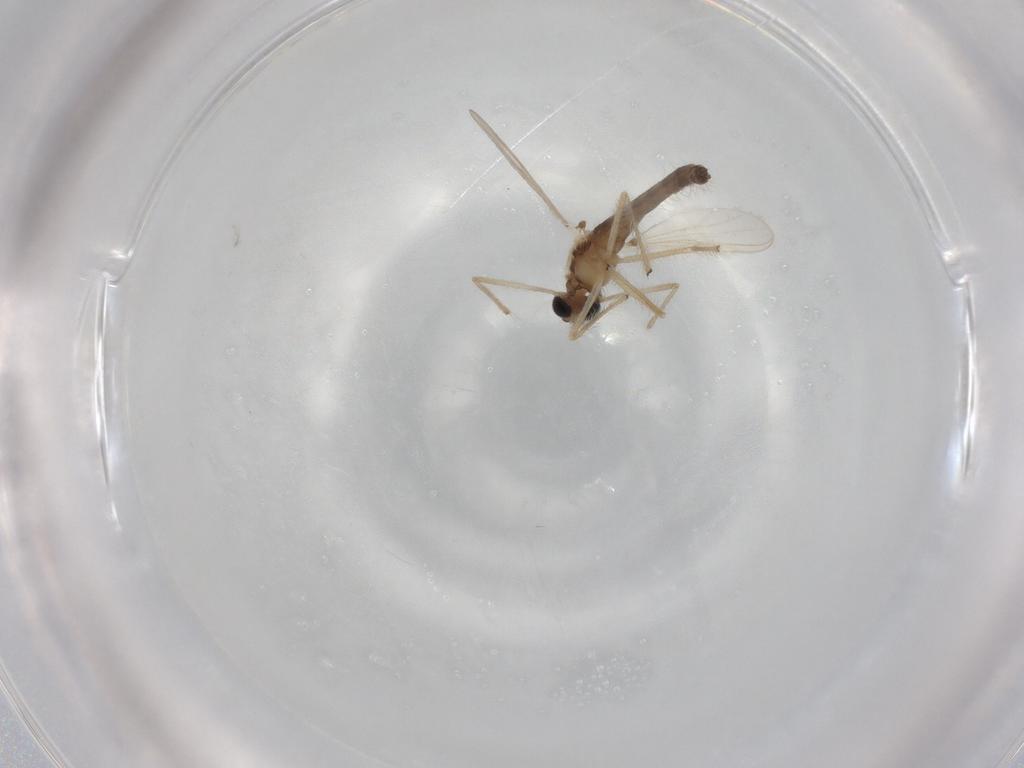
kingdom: Animalia
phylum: Arthropoda
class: Insecta
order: Diptera
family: Chironomidae
